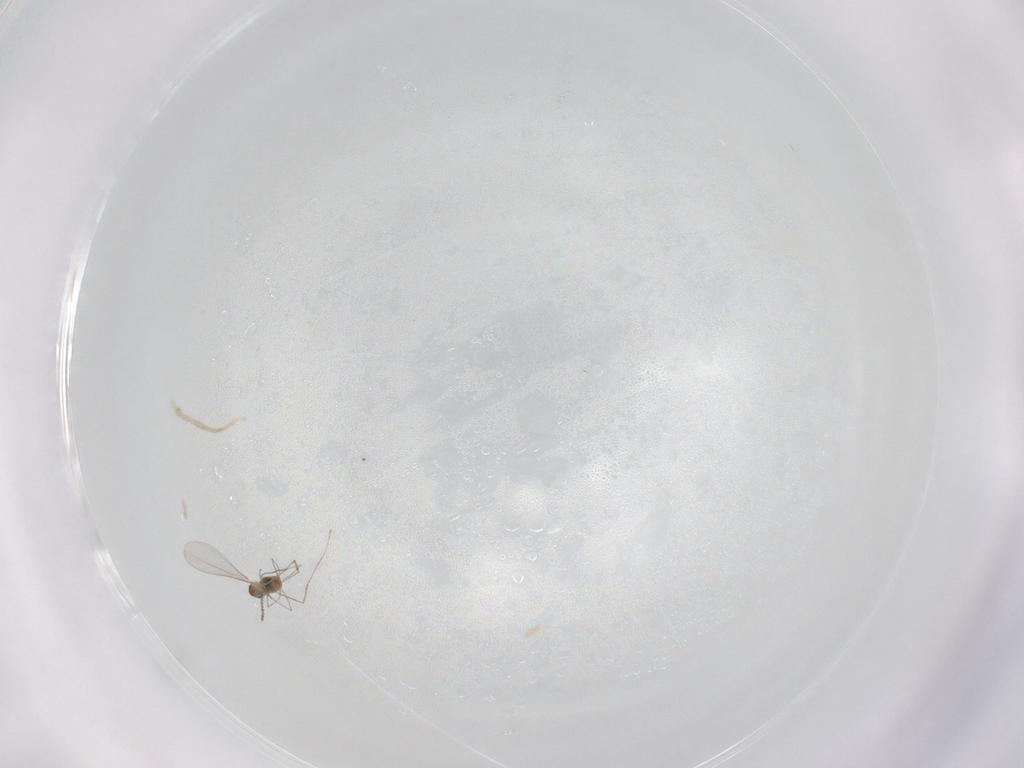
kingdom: Animalia
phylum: Arthropoda
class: Insecta
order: Diptera
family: Cecidomyiidae
